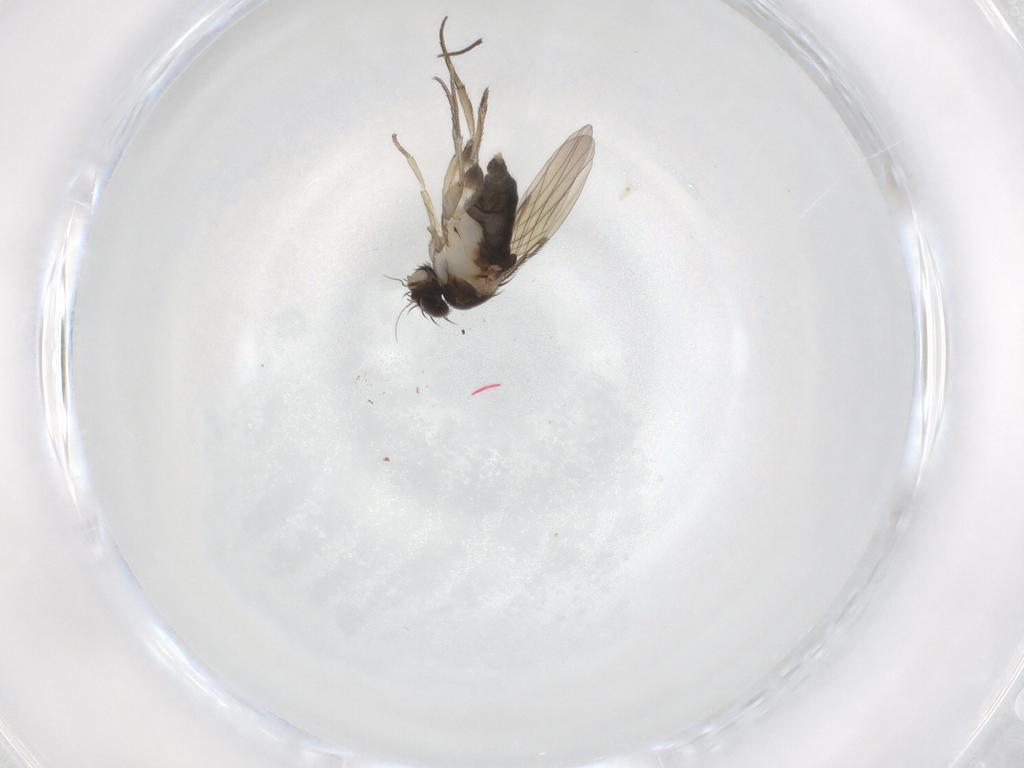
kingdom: Animalia
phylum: Arthropoda
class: Insecta
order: Diptera
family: Phoridae
